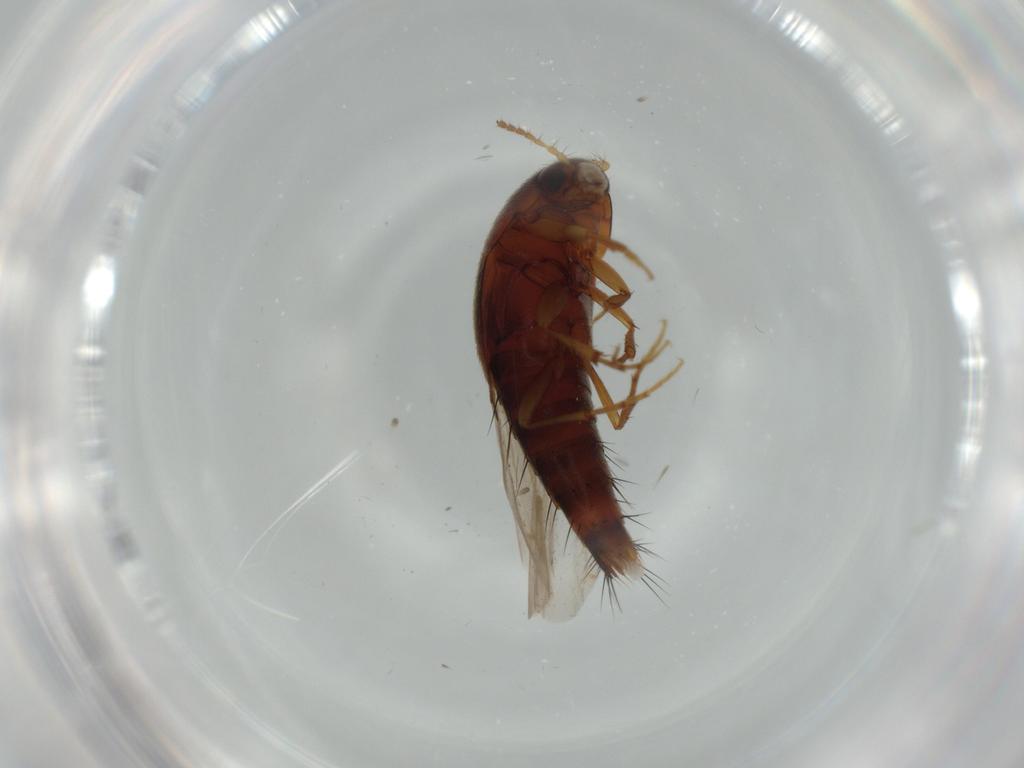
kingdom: Animalia
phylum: Arthropoda
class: Insecta
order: Coleoptera
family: Staphylinidae
